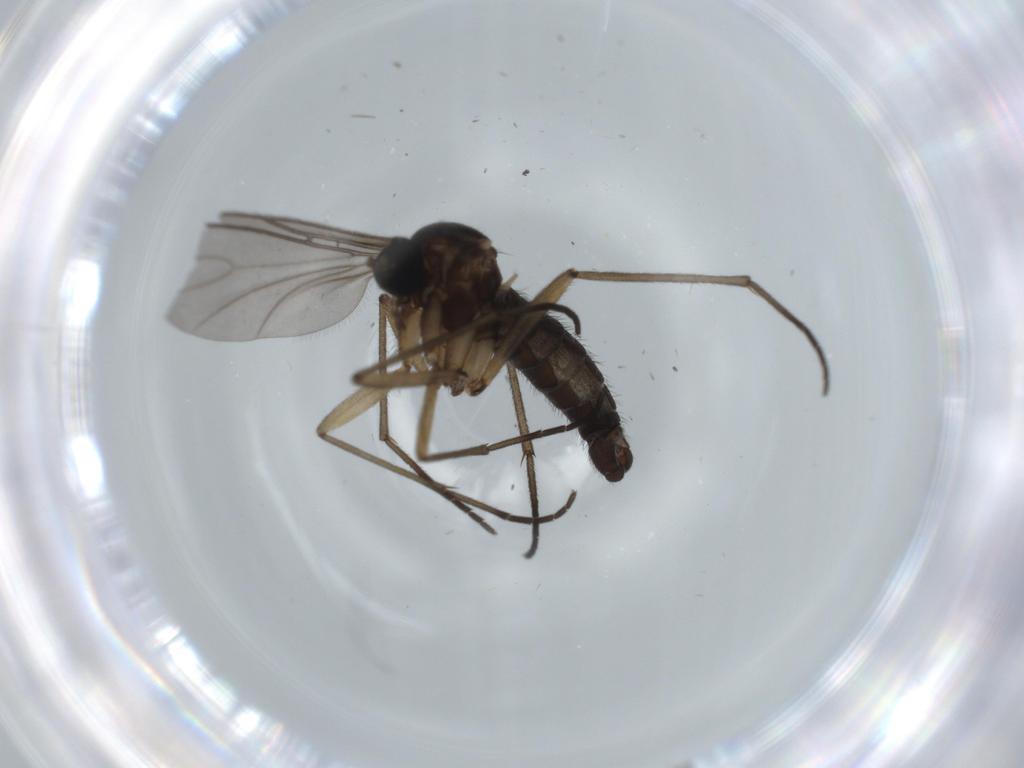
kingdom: Animalia
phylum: Arthropoda
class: Insecta
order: Diptera
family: Sciaridae
